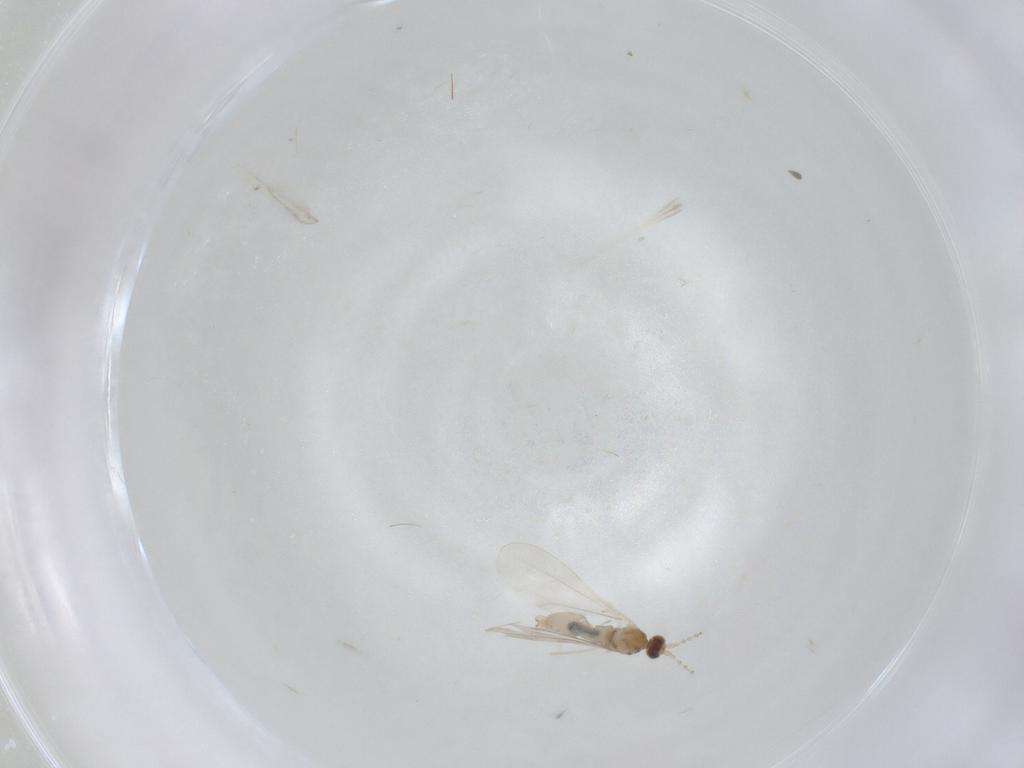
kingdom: Animalia
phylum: Arthropoda
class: Insecta
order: Diptera
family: Cecidomyiidae
